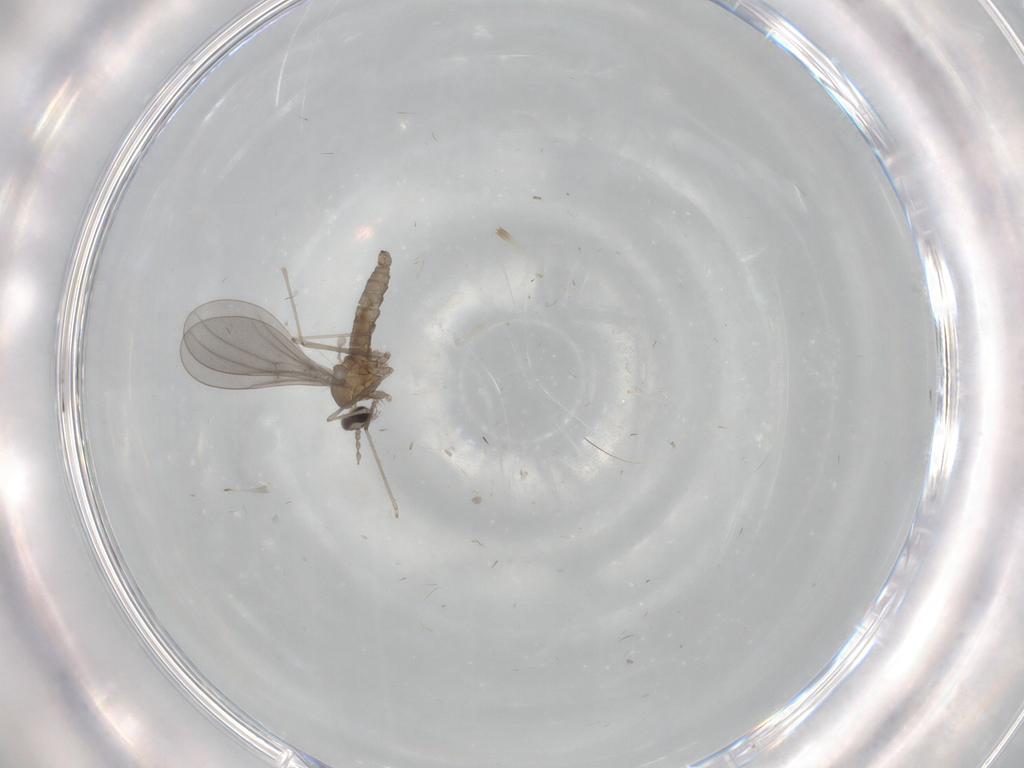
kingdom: Animalia
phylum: Arthropoda
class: Insecta
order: Diptera
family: Cecidomyiidae
